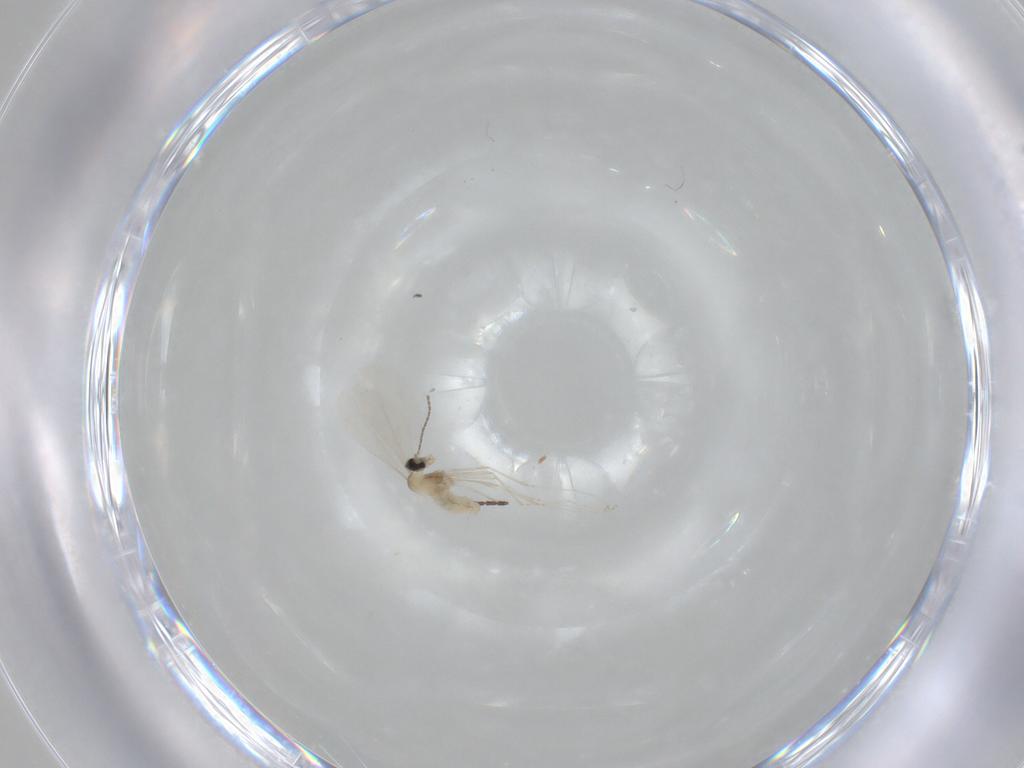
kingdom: Animalia
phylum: Arthropoda
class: Insecta
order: Diptera
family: Cecidomyiidae
